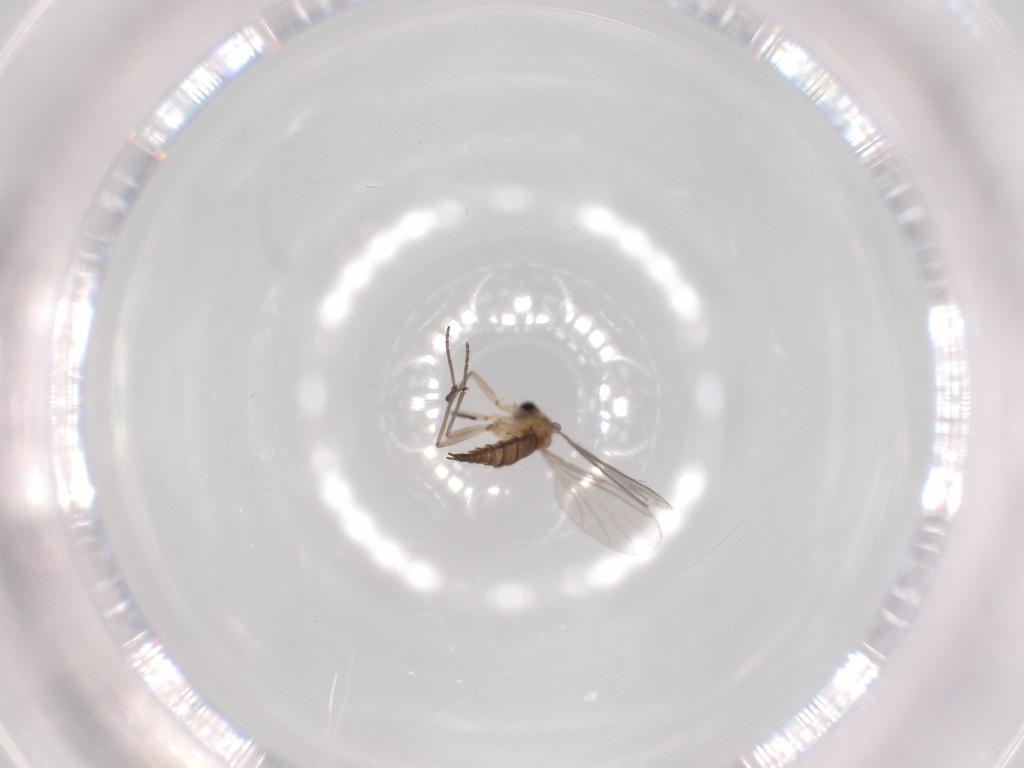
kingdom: Animalia
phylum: Arthropoda
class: Insecta
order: Diptera
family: Sciaridae
